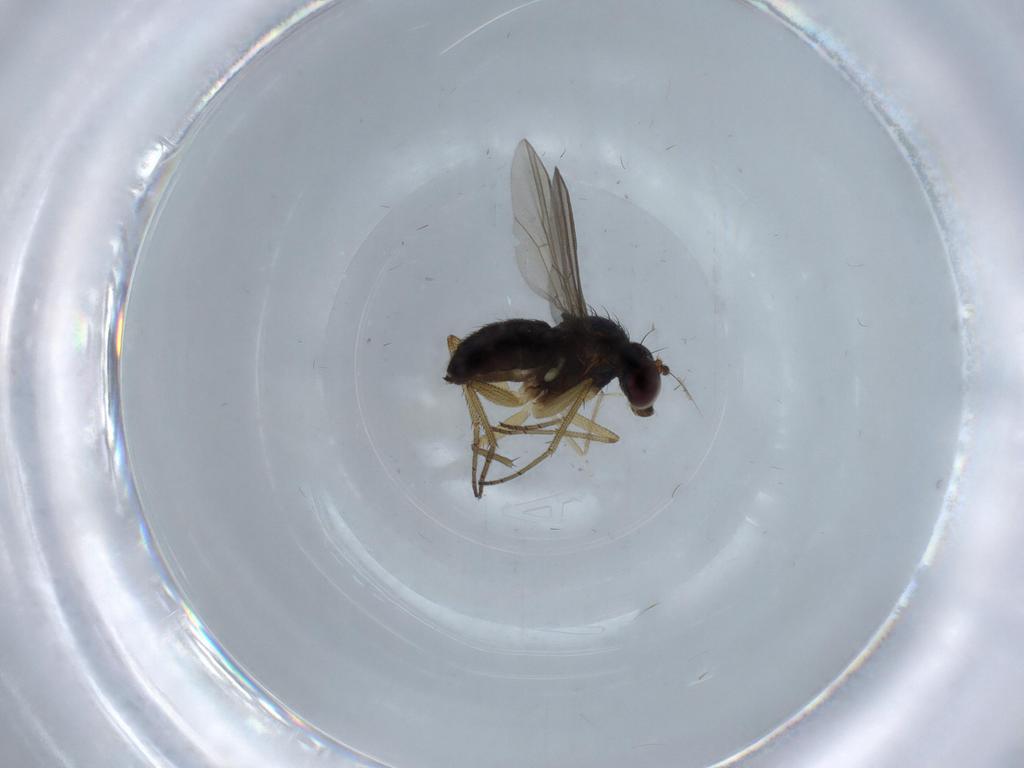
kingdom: Animalia
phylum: Arthropoda
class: Insecta
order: Diptera
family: Dolichopodidae
